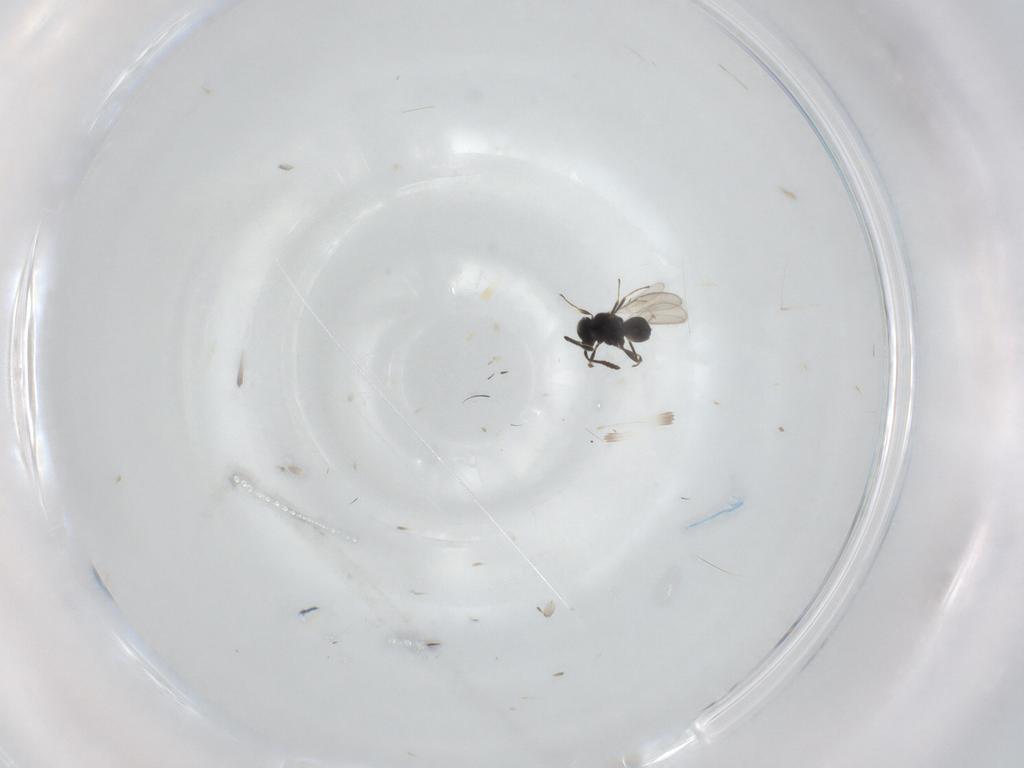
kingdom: Animalia
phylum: Arthropoda
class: Insecta
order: Hymenoptera
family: Scelionidae
